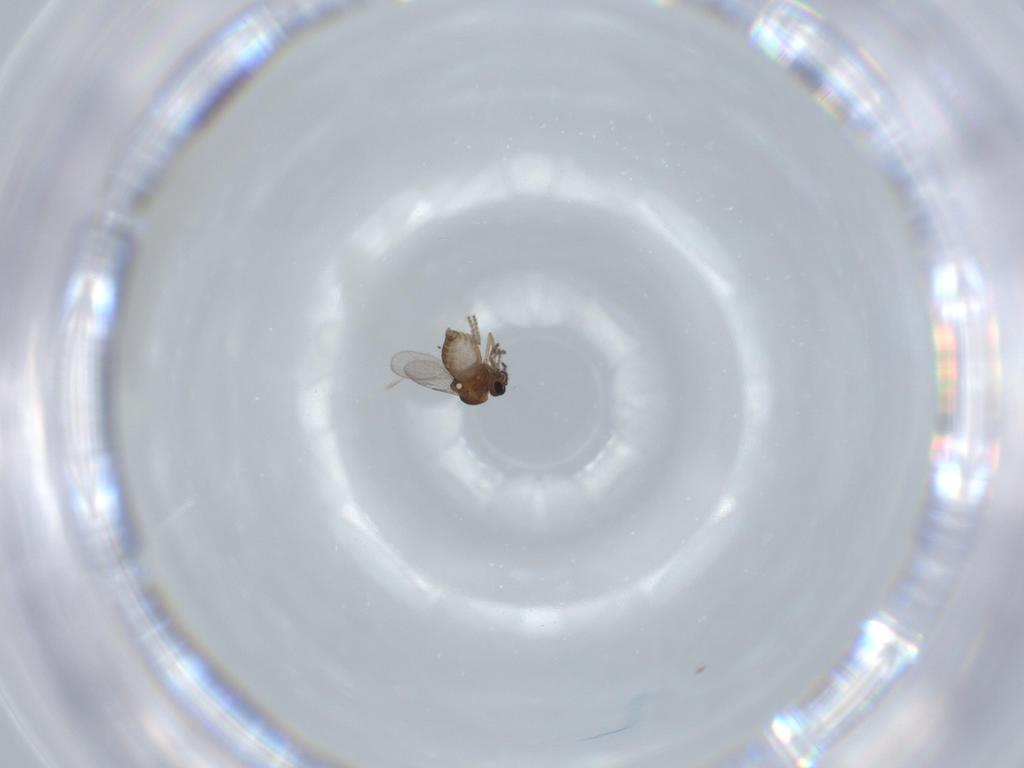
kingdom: Animalia
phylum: Arthropoda
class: Insecta
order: Diptera
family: Ceratopogonidae
